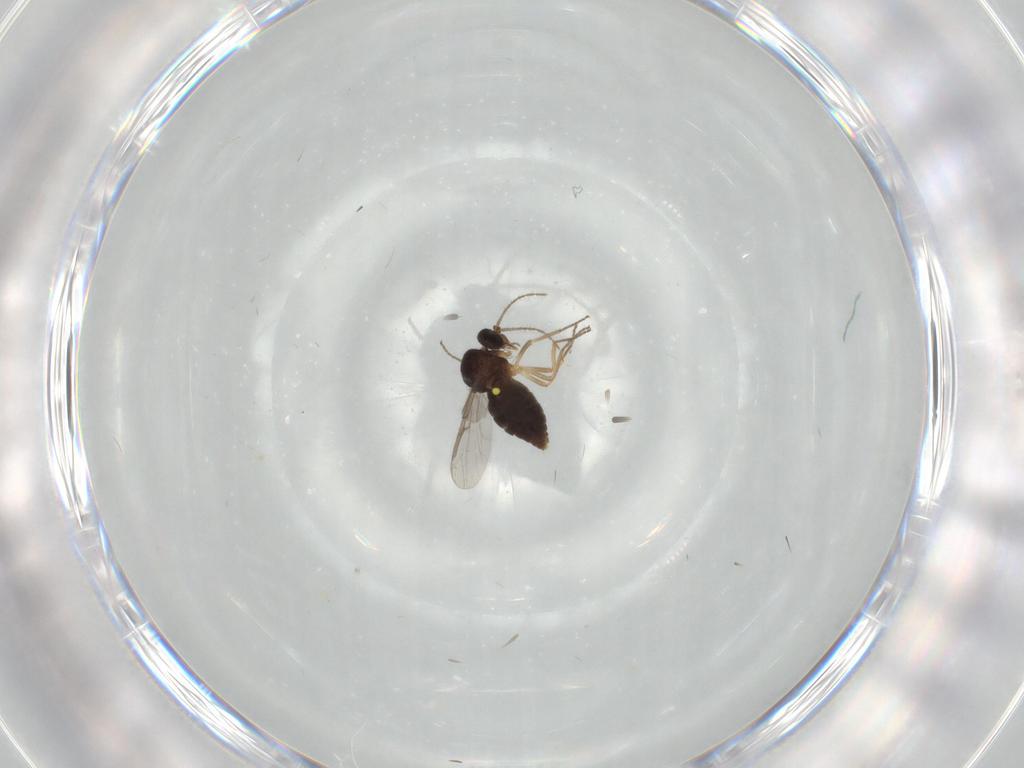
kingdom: Animalia
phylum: Arthropoda
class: Insecta
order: Diptera
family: Ceratopogonidae
